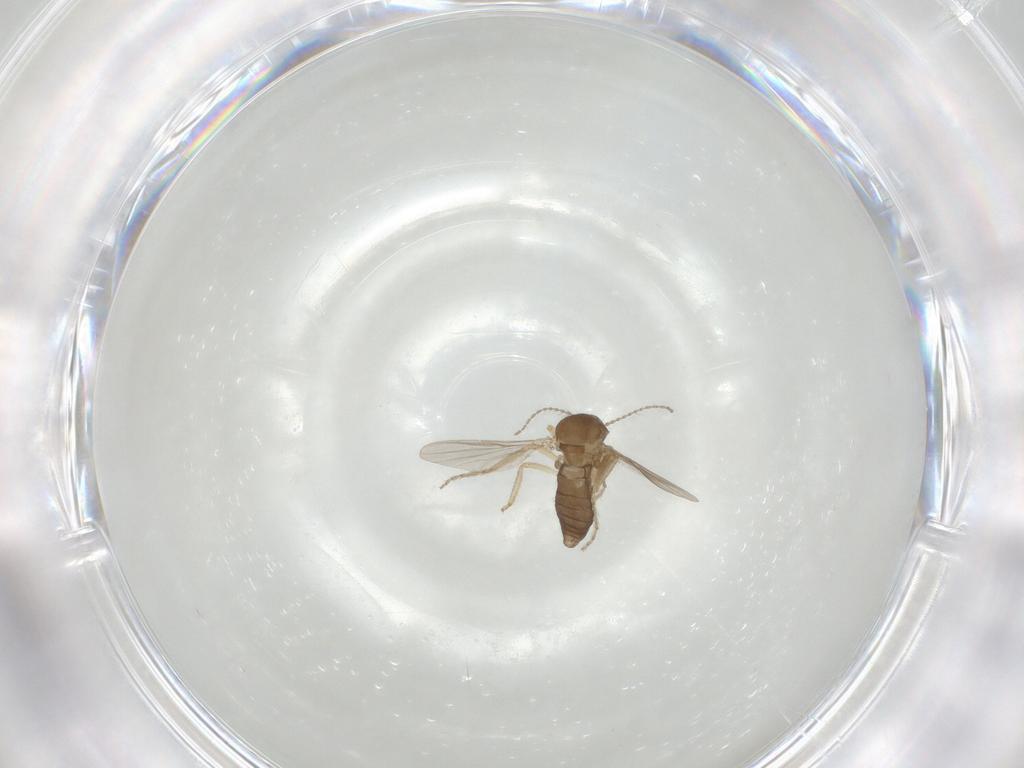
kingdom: Animalia
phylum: Arthropoda
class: Insecta
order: Diptera
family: Ceratopogonidae
